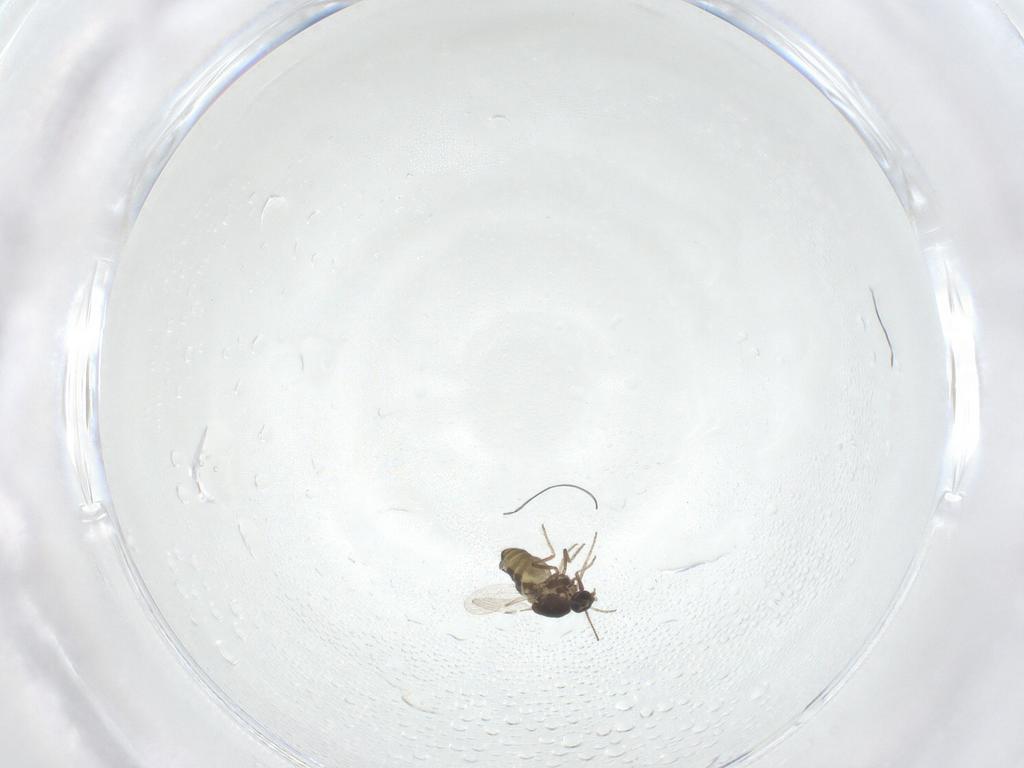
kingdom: Animalia
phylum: Arthropoda
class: Insecta
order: Diptera
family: Ceratopogonidae
